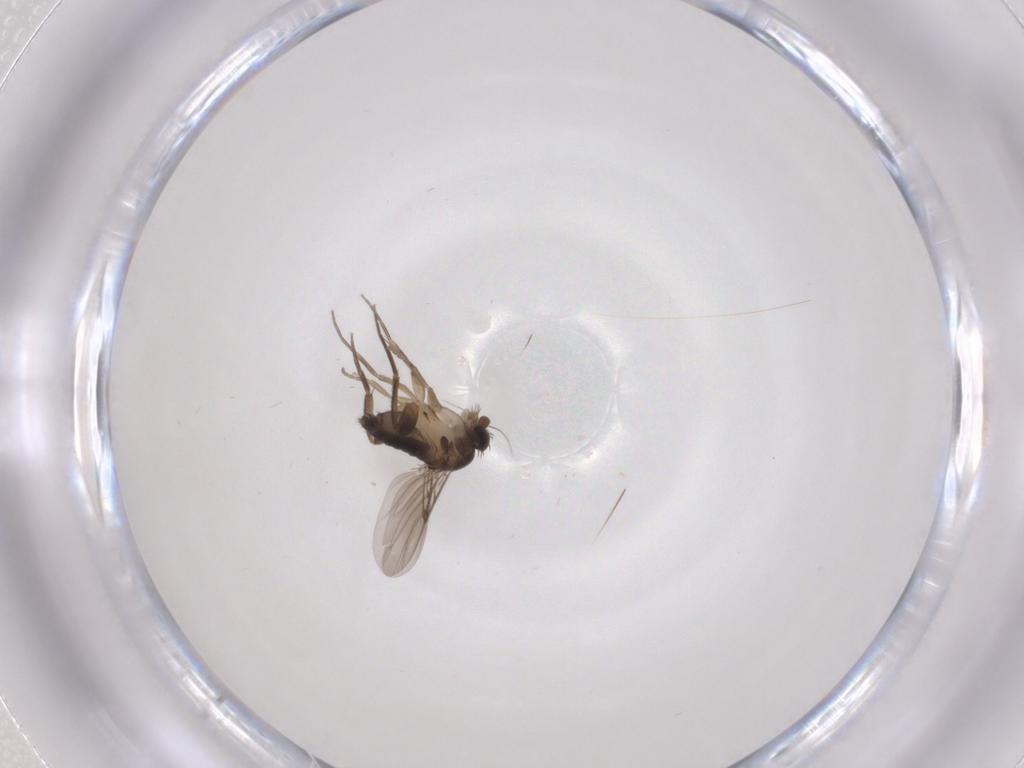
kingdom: Animalia
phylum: Arthropoda
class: Insecta
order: Diptera
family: Phoridae
